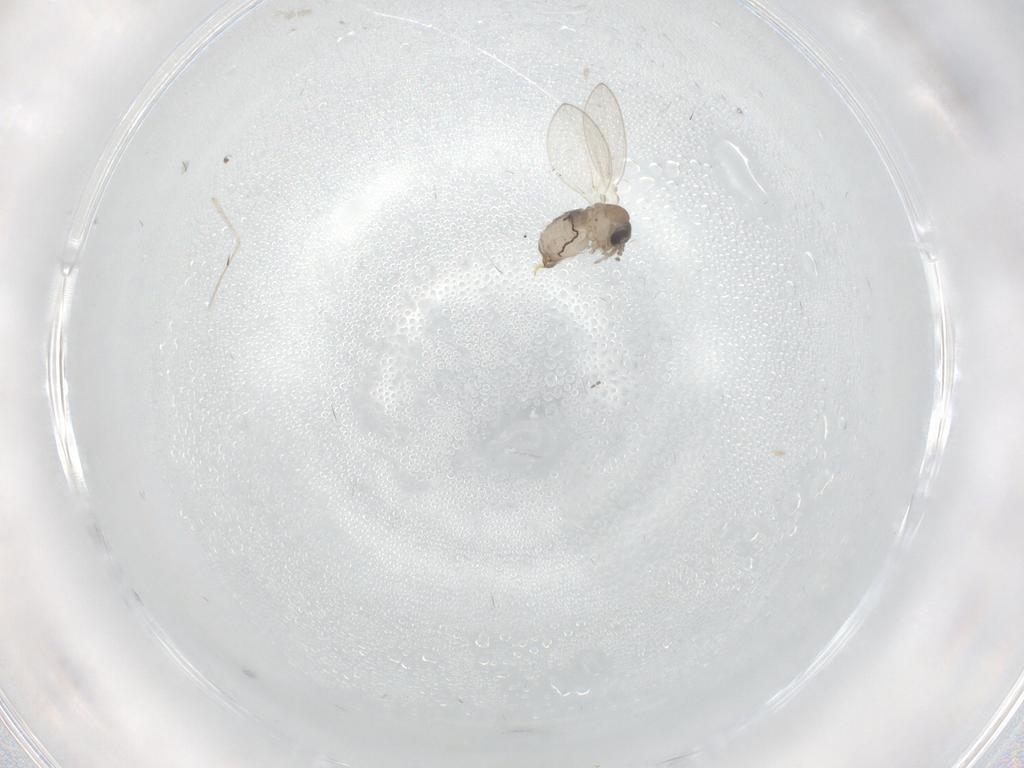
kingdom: Animalia
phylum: Arthropoda
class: Insecta
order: Diptera
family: Psychodidae
